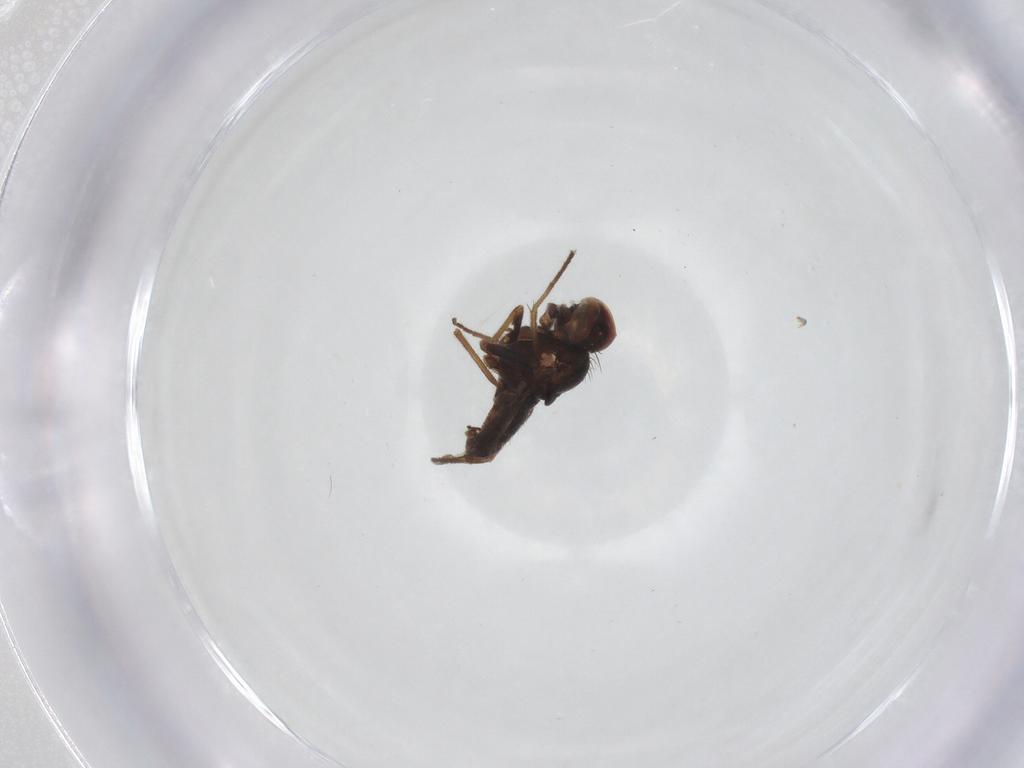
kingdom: Animalia
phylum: Arthropoda
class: Insecta
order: Diptera
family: Dolichopodidae
